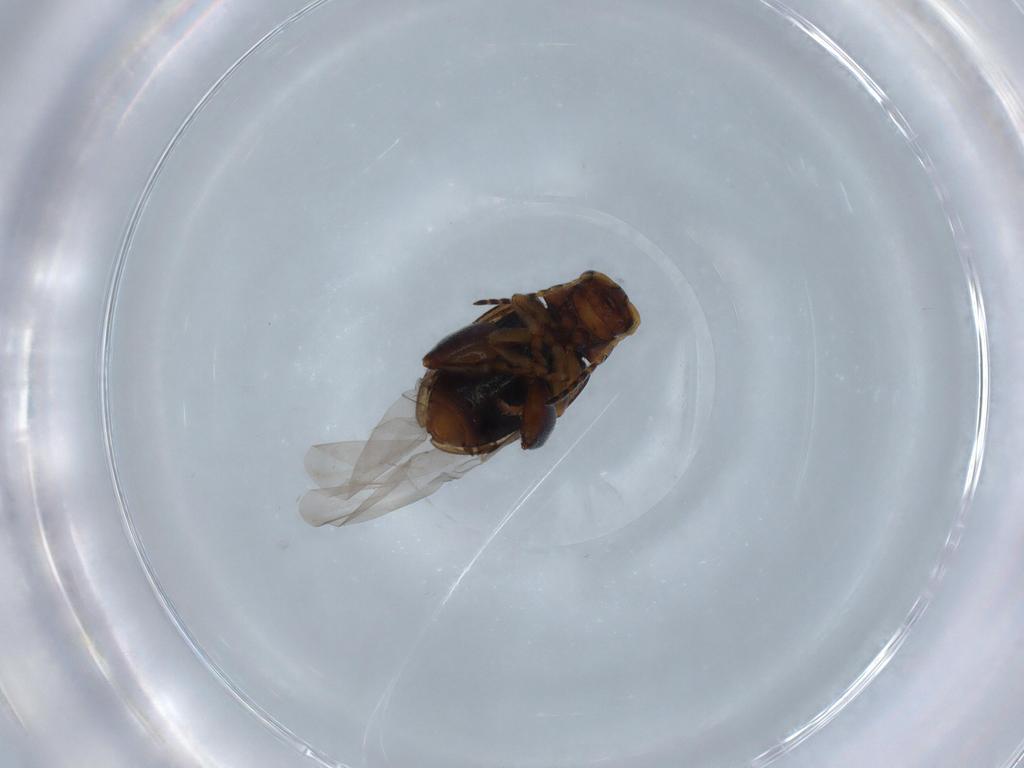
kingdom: Animalia
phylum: Arthropoda
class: Insecta
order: Coleoptera
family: Chrysomelidae
